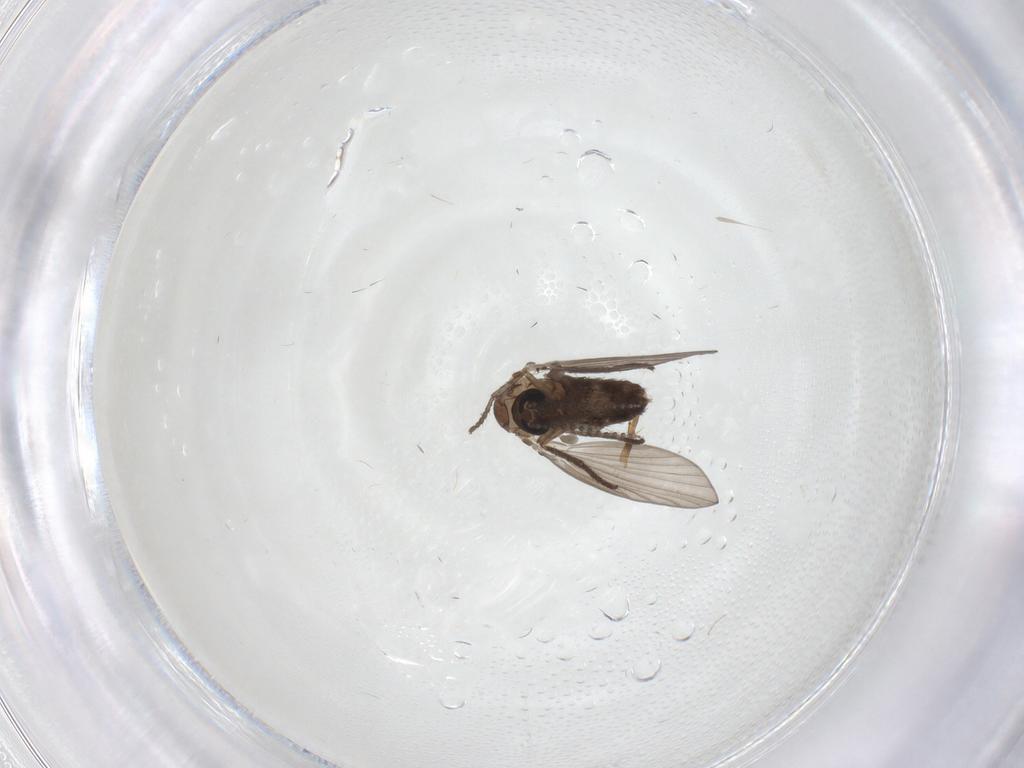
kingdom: Animalia
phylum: Arthropoda
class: Insecta
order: Diptera
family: Psychodidae
